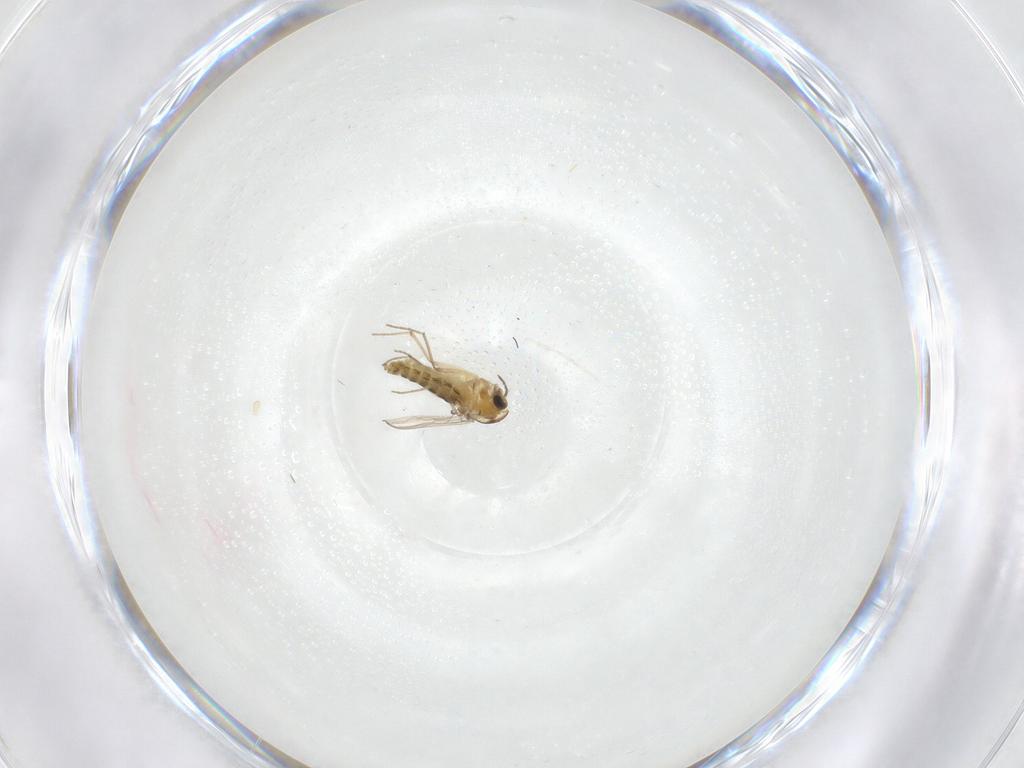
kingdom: Animalia
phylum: Arthropoda
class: Insecta
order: Diptera
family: Chironomidae
